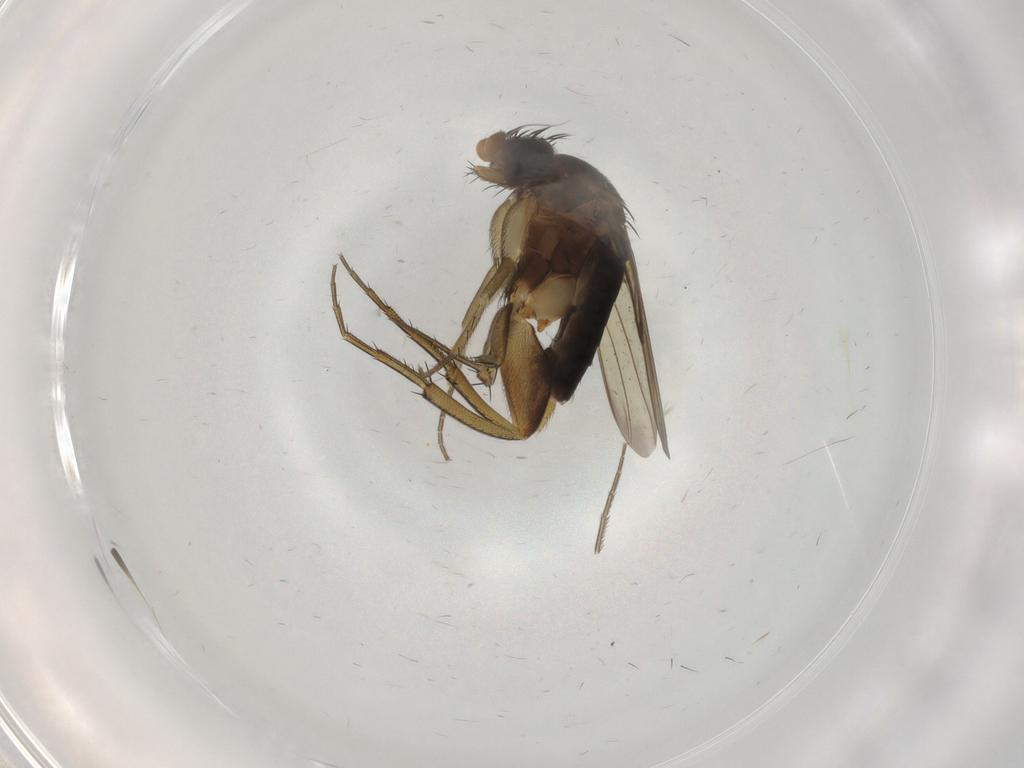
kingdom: Animalia
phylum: Arthropoda
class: Insecta
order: Diptera
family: Phoridae
